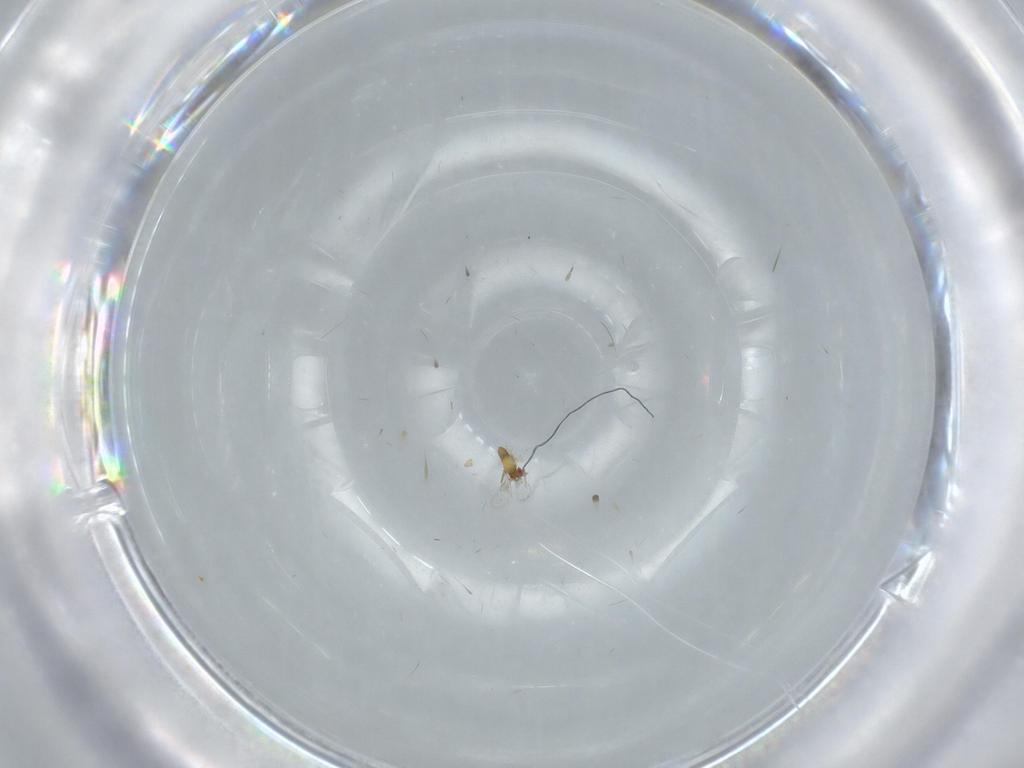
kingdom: Animalia
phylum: Arthropoda
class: Insecta
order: Hymenoptera
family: Trichogrammatidae
